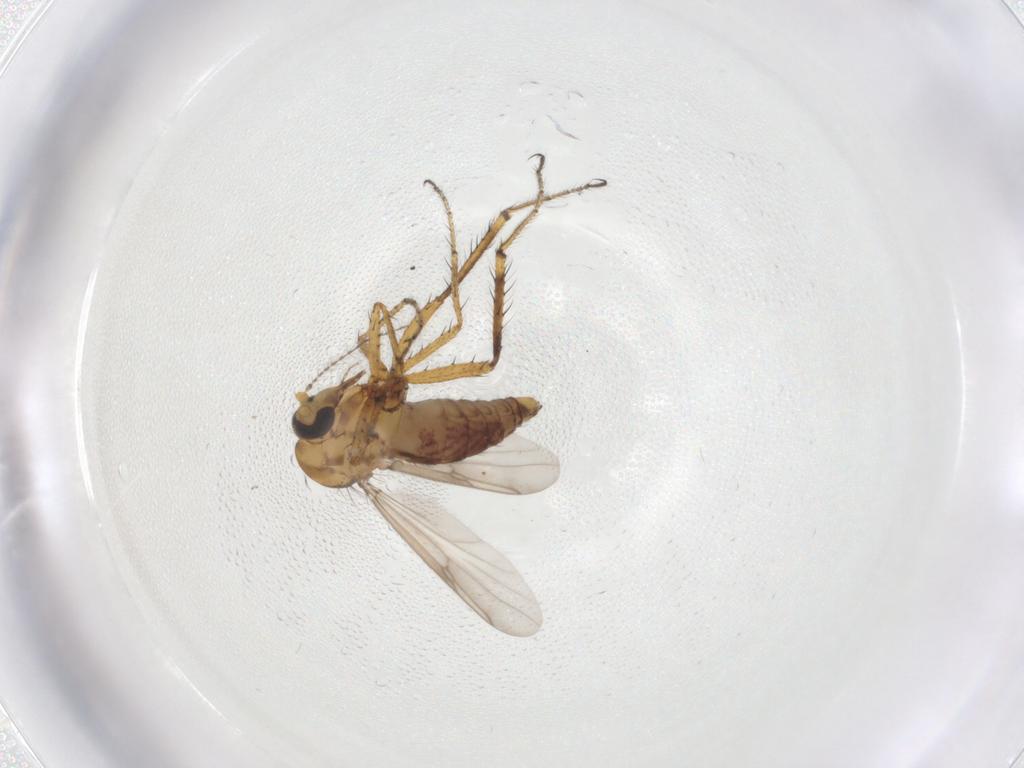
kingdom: Animalia
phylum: Arthropoda
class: Insecta
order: Diptera
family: Ceratopogonidae
